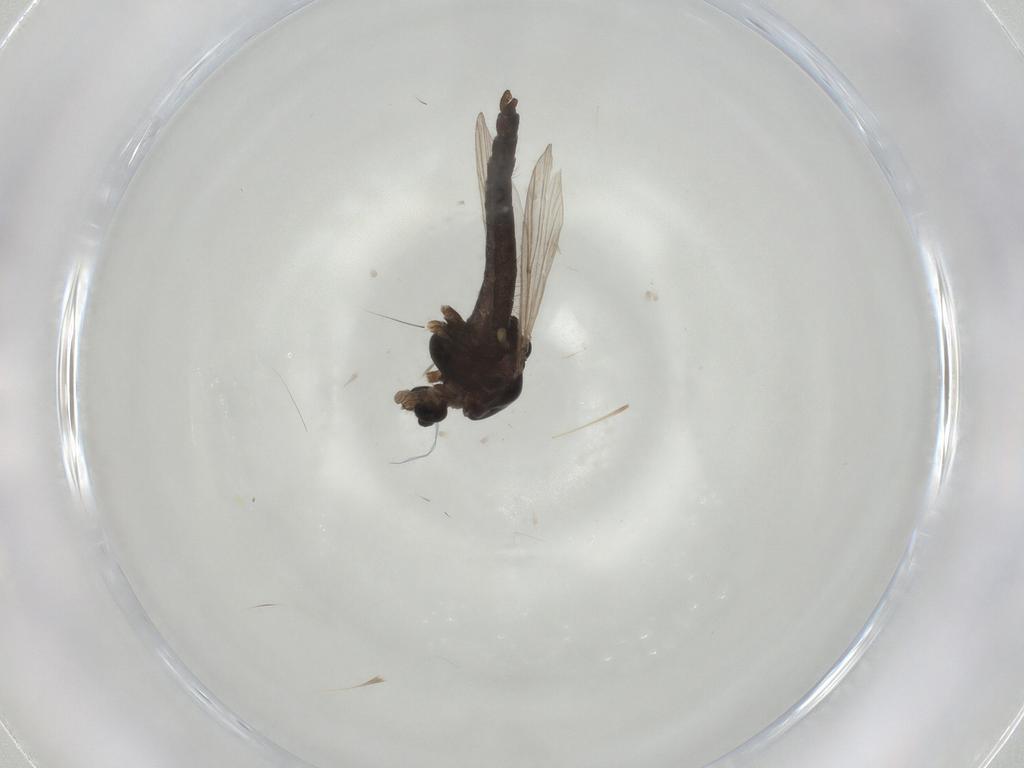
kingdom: Animalia
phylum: Arthropoda
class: Insecta
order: Diptera
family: Chironomidae
